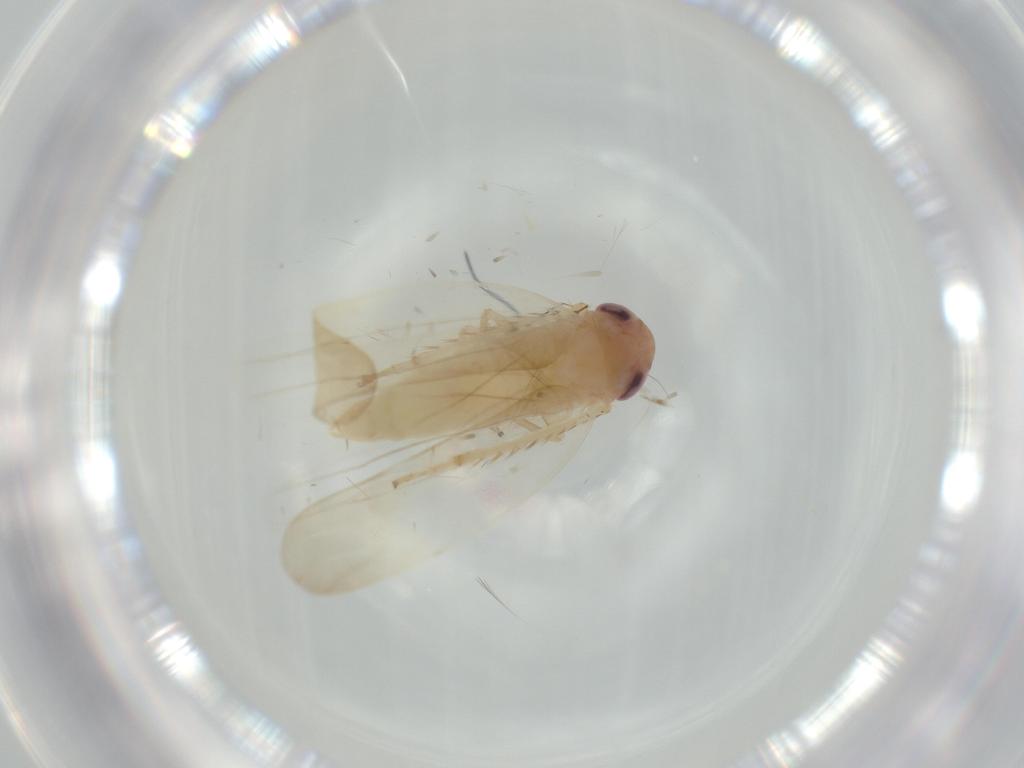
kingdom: Animalia
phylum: Arthropoda
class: Insecta
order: Hemiptera
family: Cicadellidae
